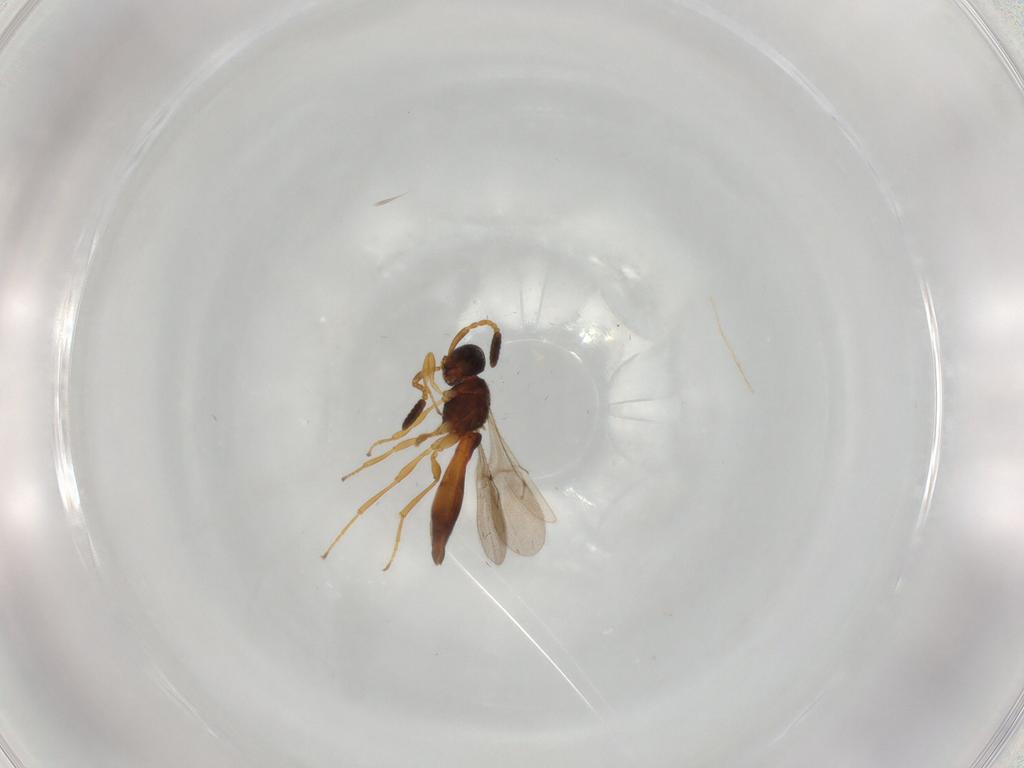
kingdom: Animalia
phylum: Arthropoda
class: Insecta
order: Hymenoptera
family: Scelionidae
